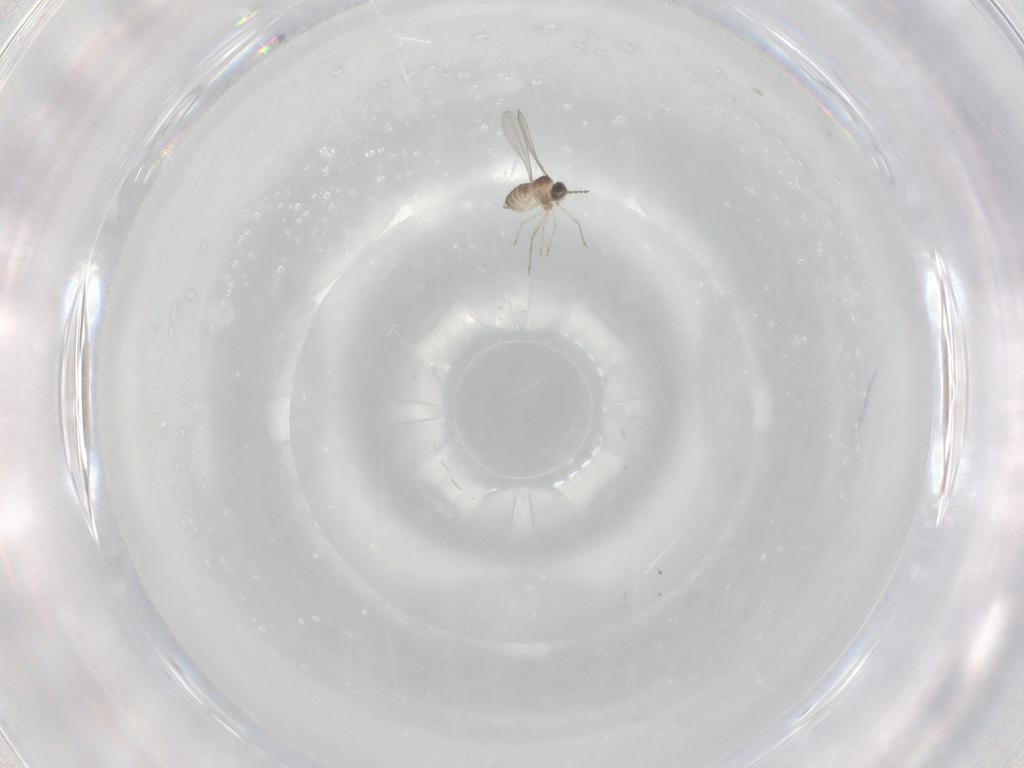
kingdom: Animalia
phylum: Arthropoda
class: Insecta
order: Diptera
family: Cecidomyiidae
